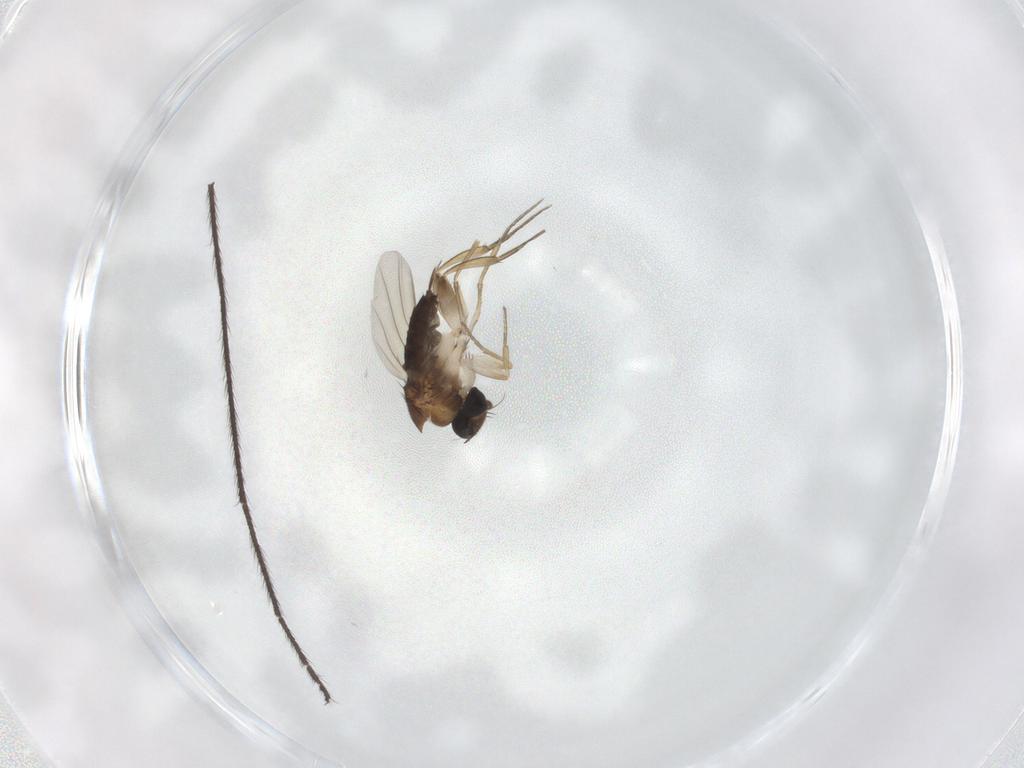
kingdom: Animalia
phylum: Arthropoda
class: Insecta
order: Diptera
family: Phoridae
